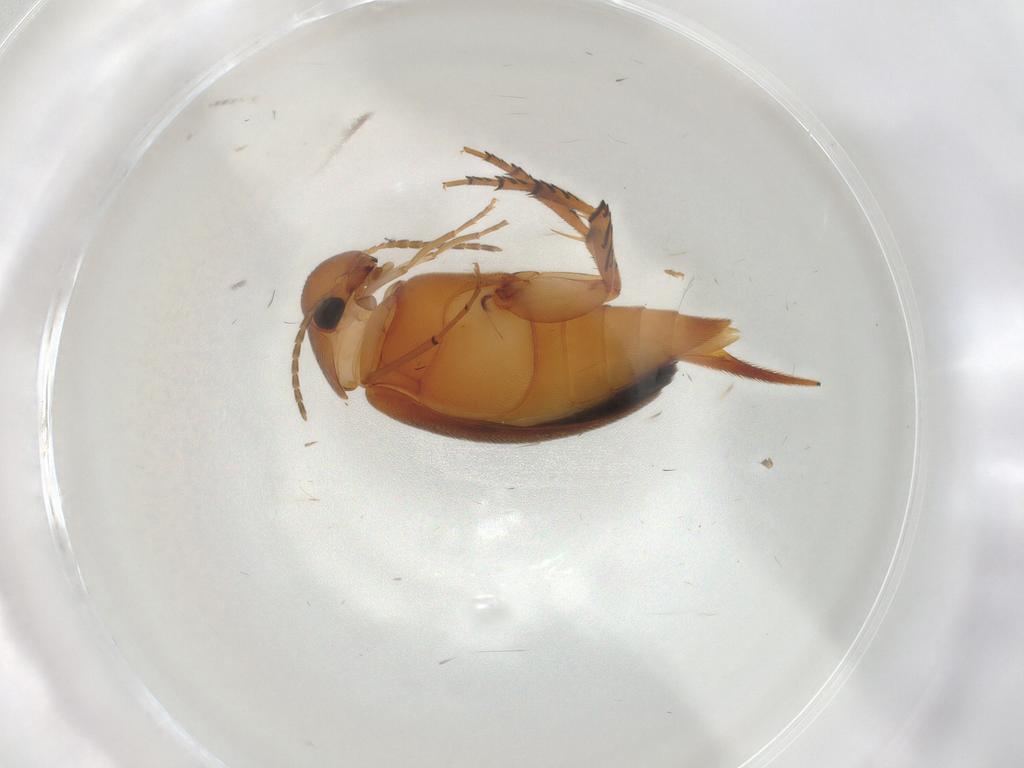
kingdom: Animalia
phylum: Arthropoda
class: Insecta
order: Coleoptera
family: Mordellidae
